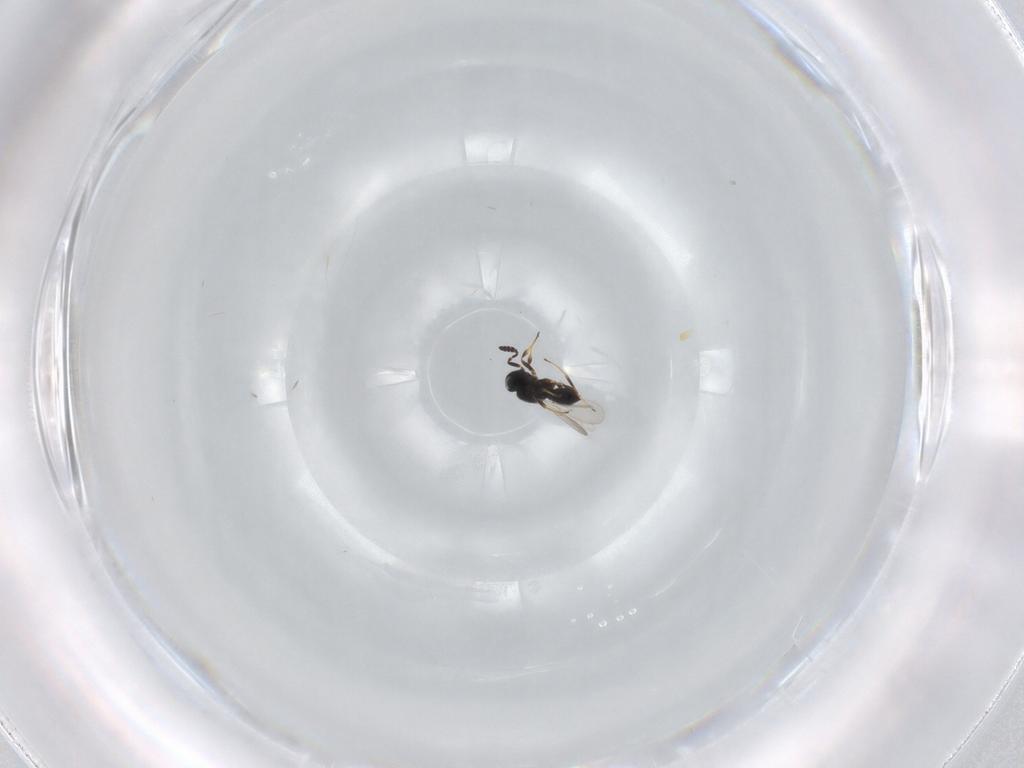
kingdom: Animalia
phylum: Arthropoda
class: Insecta
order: Hymenoptera
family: Scelionidae
